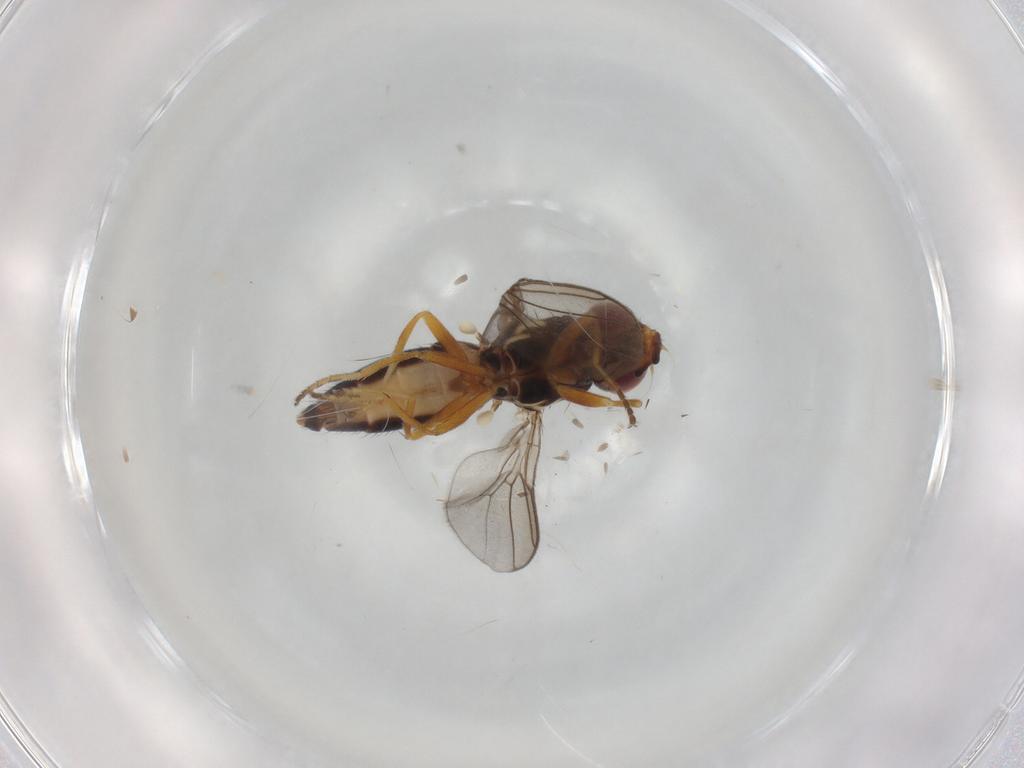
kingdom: Animalia
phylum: Arthropoda
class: Insecta
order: Diptera
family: Chloropidae
